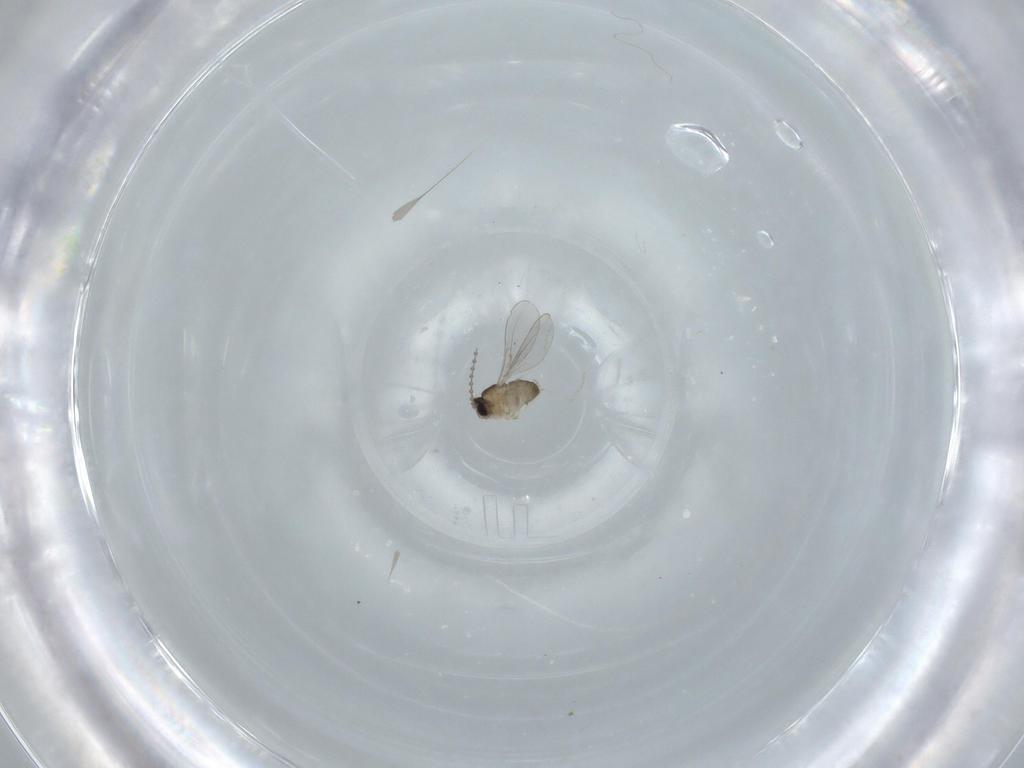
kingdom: Animalia
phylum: Arthropoda
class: Insecta
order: Diptera
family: Cecidomyiidae
